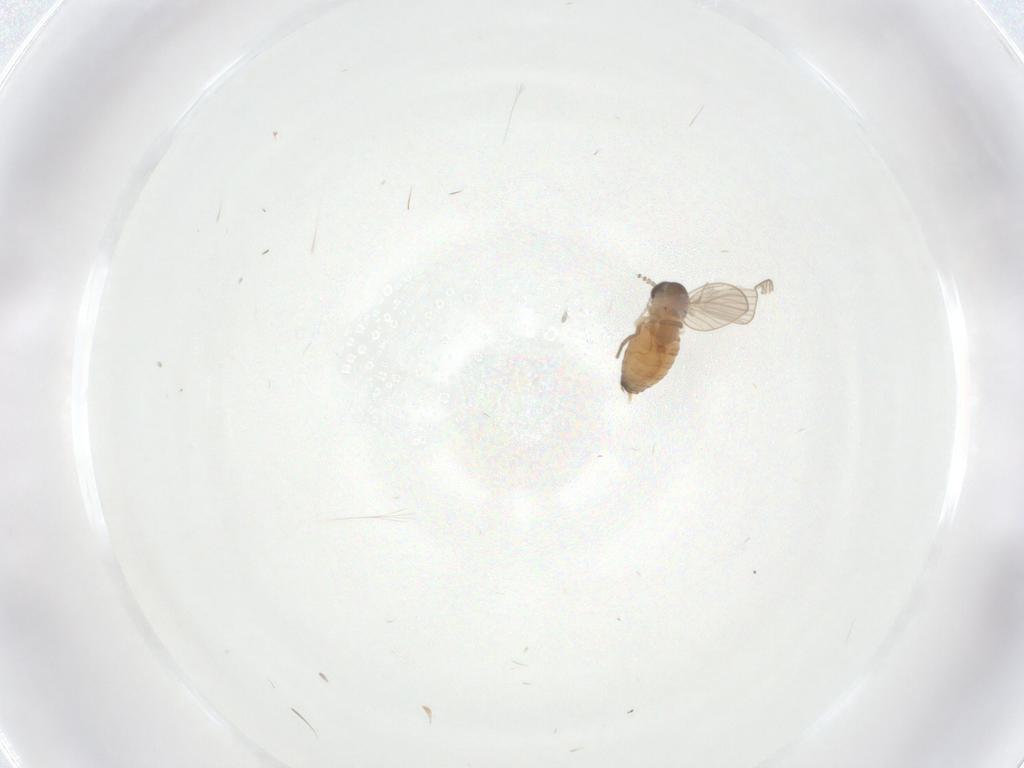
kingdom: Animalia
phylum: Arthropoda
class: Insecta
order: Diptera
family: Psychodidae
